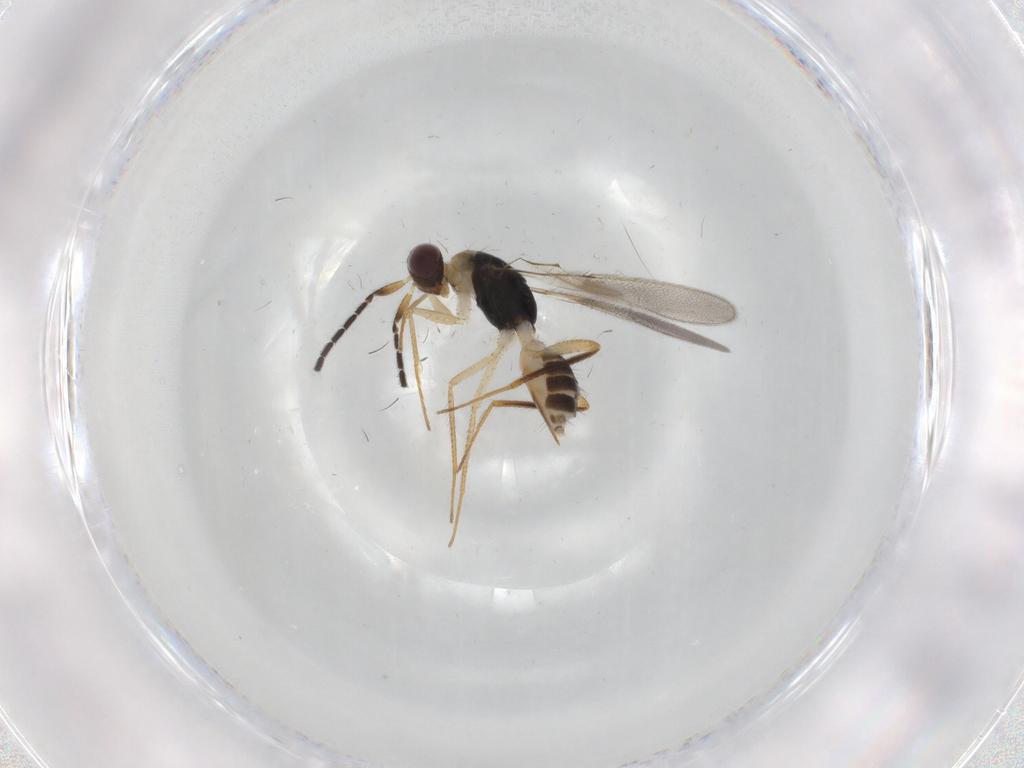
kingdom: Animalia
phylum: Arthropoda
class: Insecta
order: Hymenoptera
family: Mymaridae
